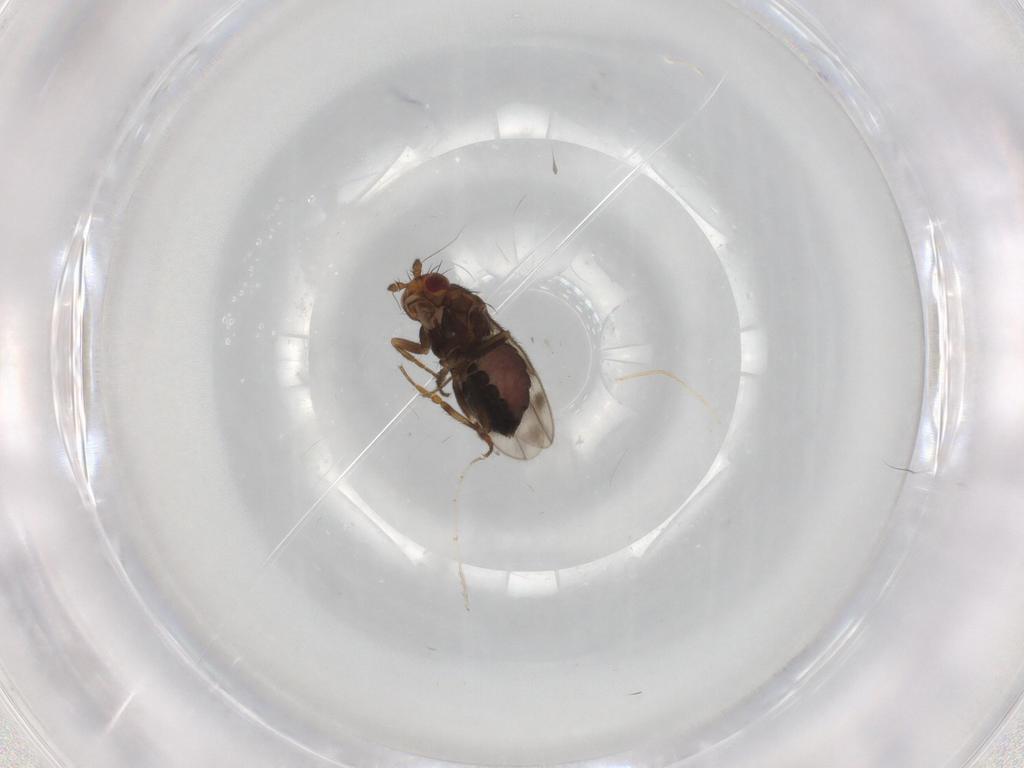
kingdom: Animalia
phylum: Arthropoda
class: Insecta
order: Diptera
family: Sphaeroceridae
